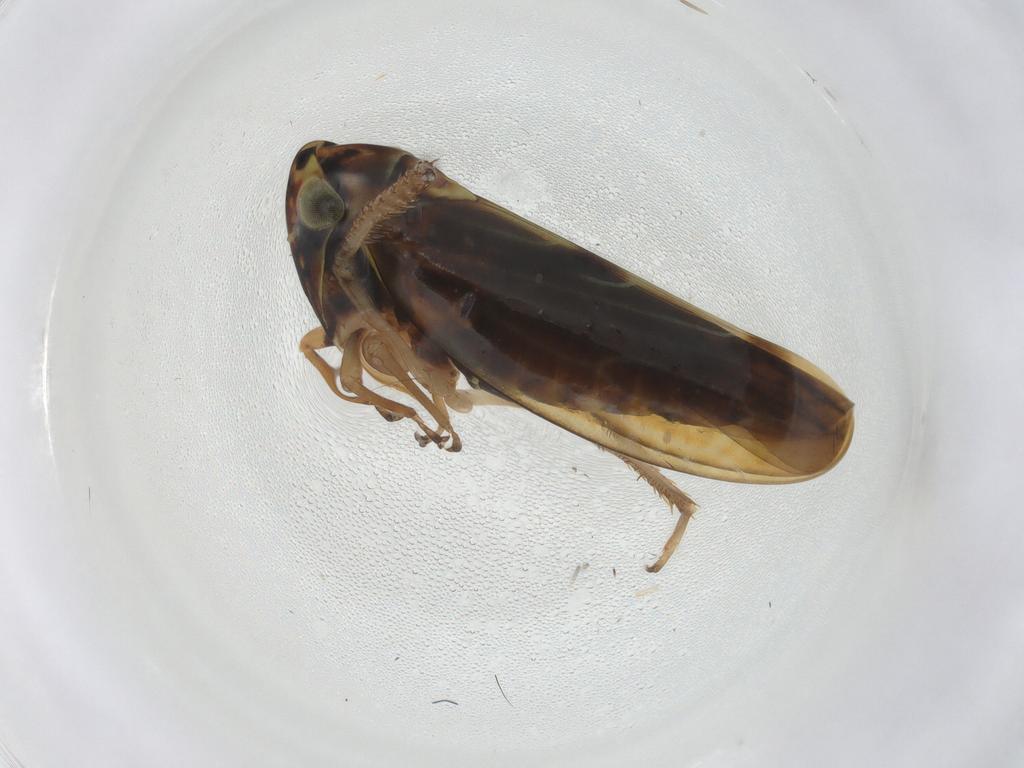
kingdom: Animalia
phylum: Arthropoda
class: Insecta
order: Hemiptera
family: Cicadellidae
